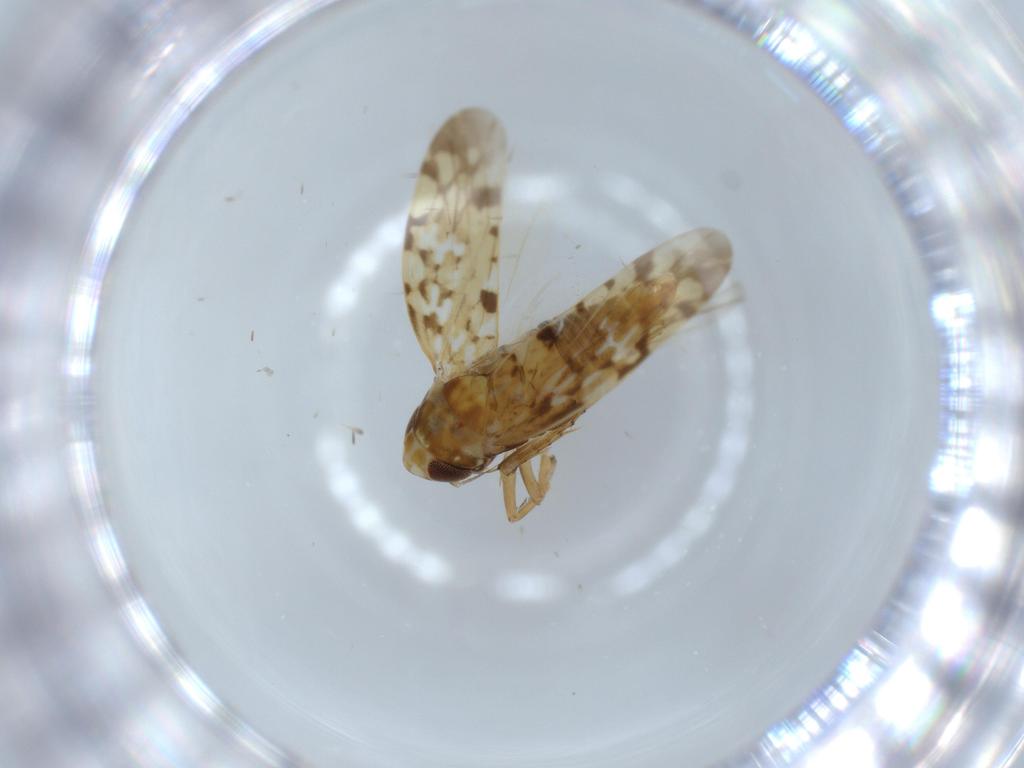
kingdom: Animalia
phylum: Arthropoda
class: Insecta
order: Hemiptera
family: Cicadellidae
